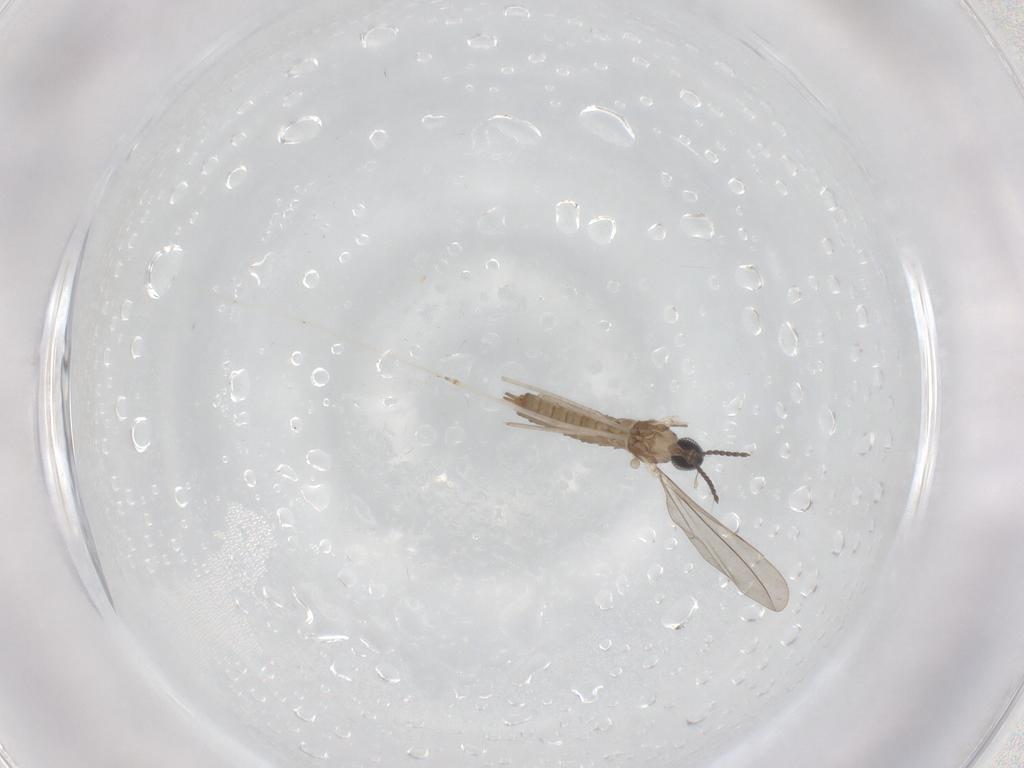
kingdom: Animalia
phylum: Arthropoda
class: Insecta
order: Diptera
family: Cecidomyiidae
